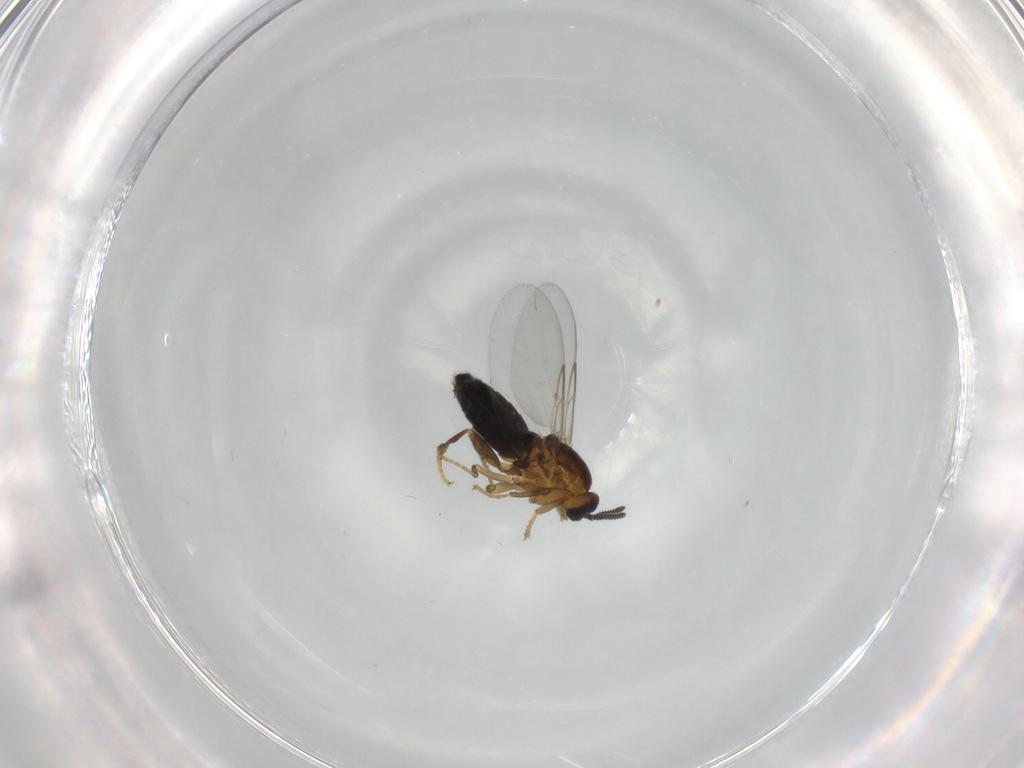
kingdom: Animalia
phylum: Arthropoda
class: Insecta
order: Diptera
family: Scatopsidae
